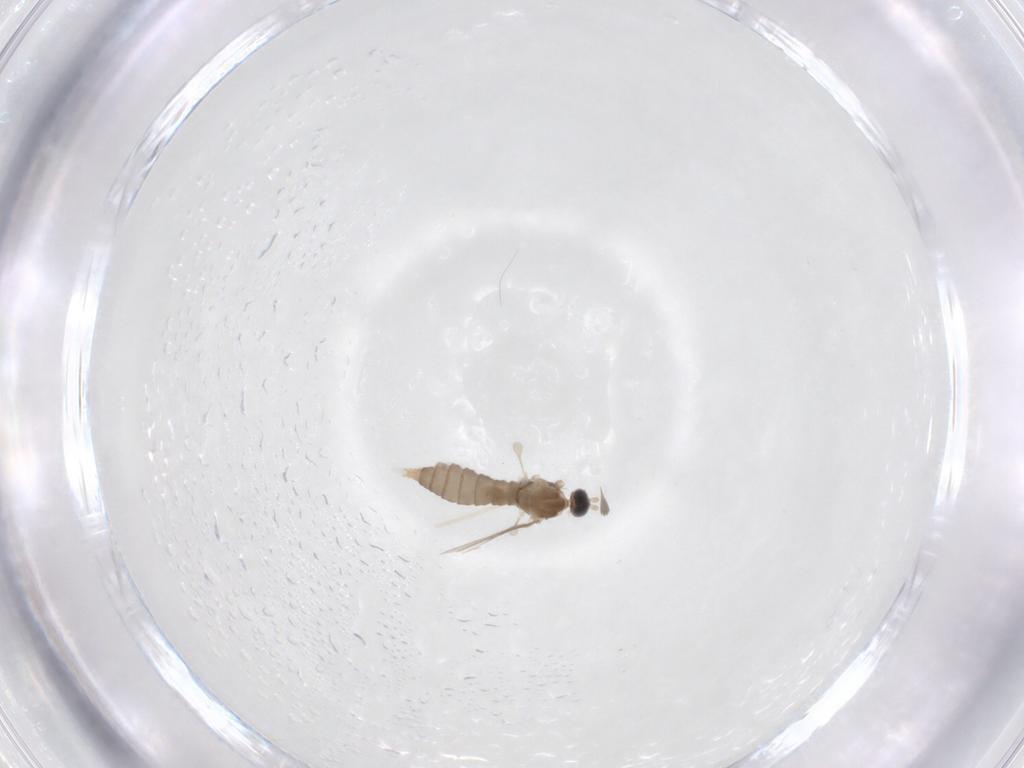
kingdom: Animalia
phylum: Arthropoda
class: Insecta
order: Diptera
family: Cecidomyiidae
